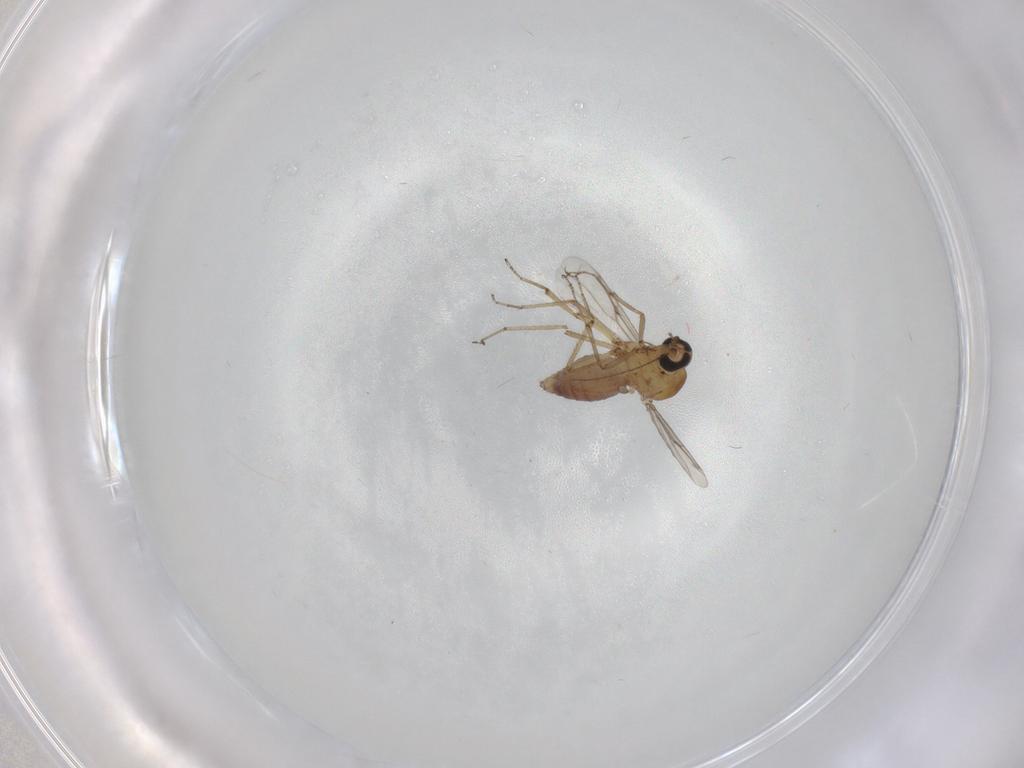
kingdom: Animalia
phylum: Arthropoda
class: Insecta
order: Diptera
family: Ceratopogonidae
